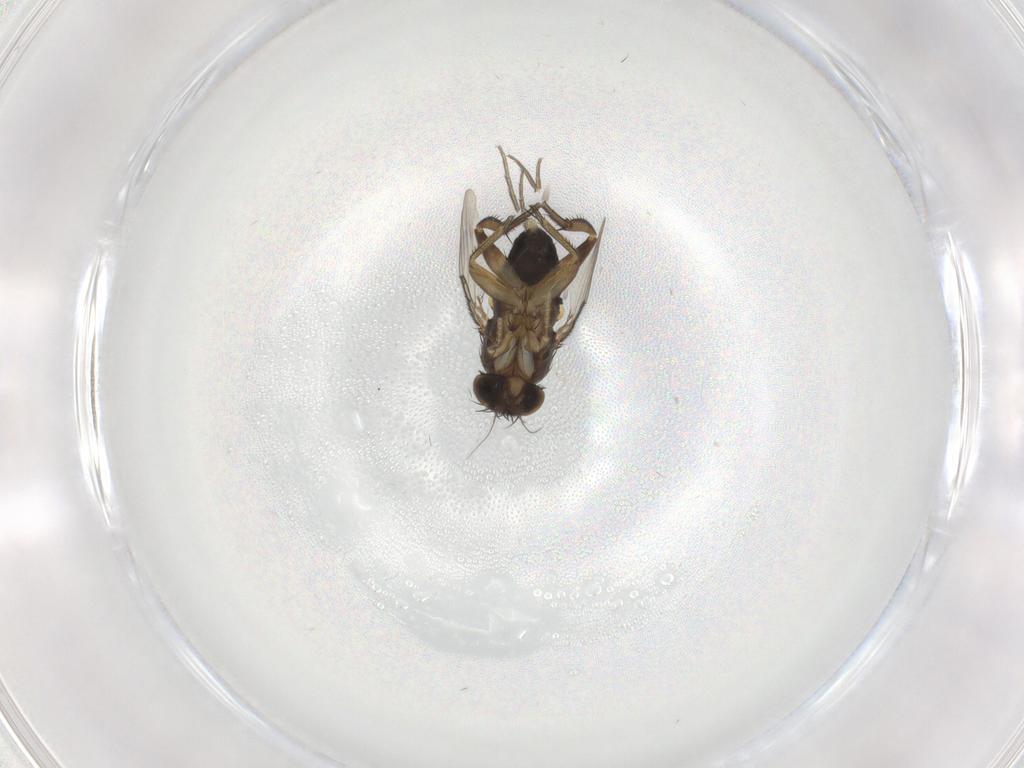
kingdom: Animalia
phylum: Arthropoda
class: Insecta
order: Diptera
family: Phoridae
